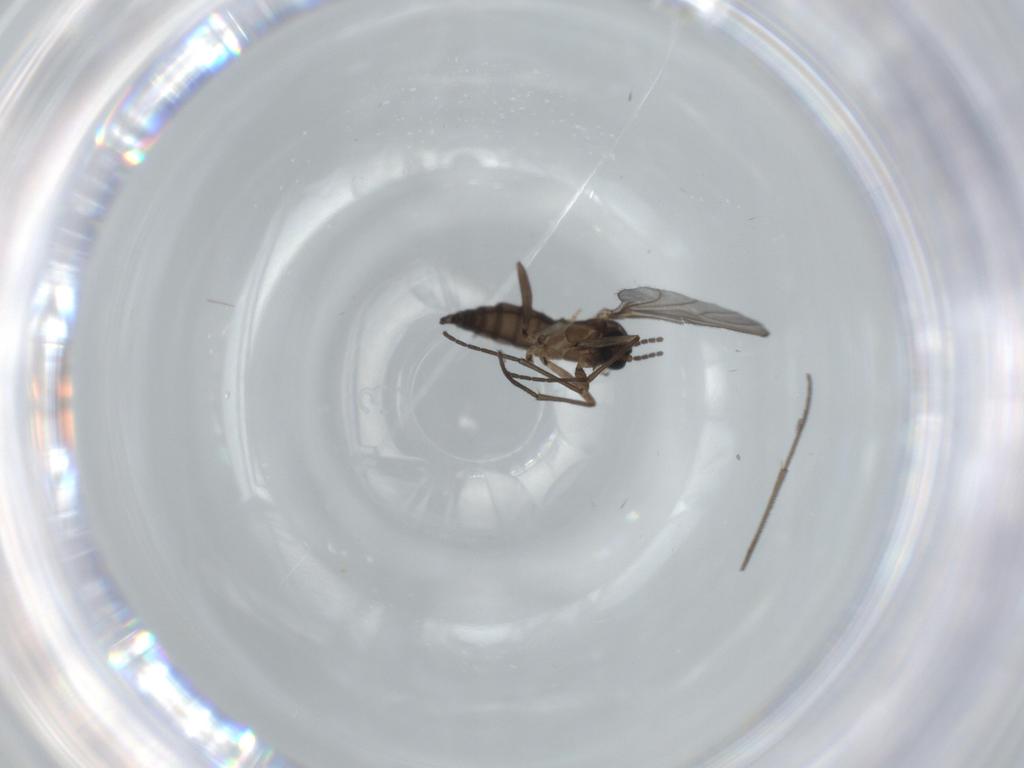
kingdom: Animalia
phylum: Arthropoda
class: Insecta
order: Diptera
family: Sciaridae
